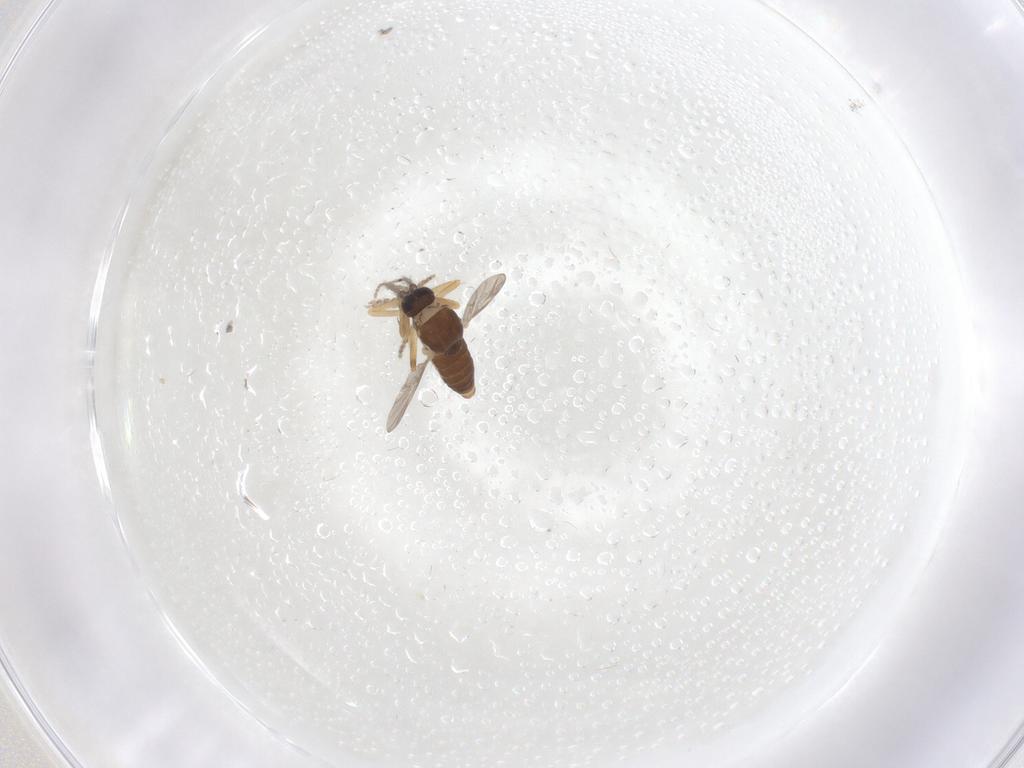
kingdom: Animalia
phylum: Arthropoda
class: Insecta
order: Diptera
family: Ceratopogonidae
